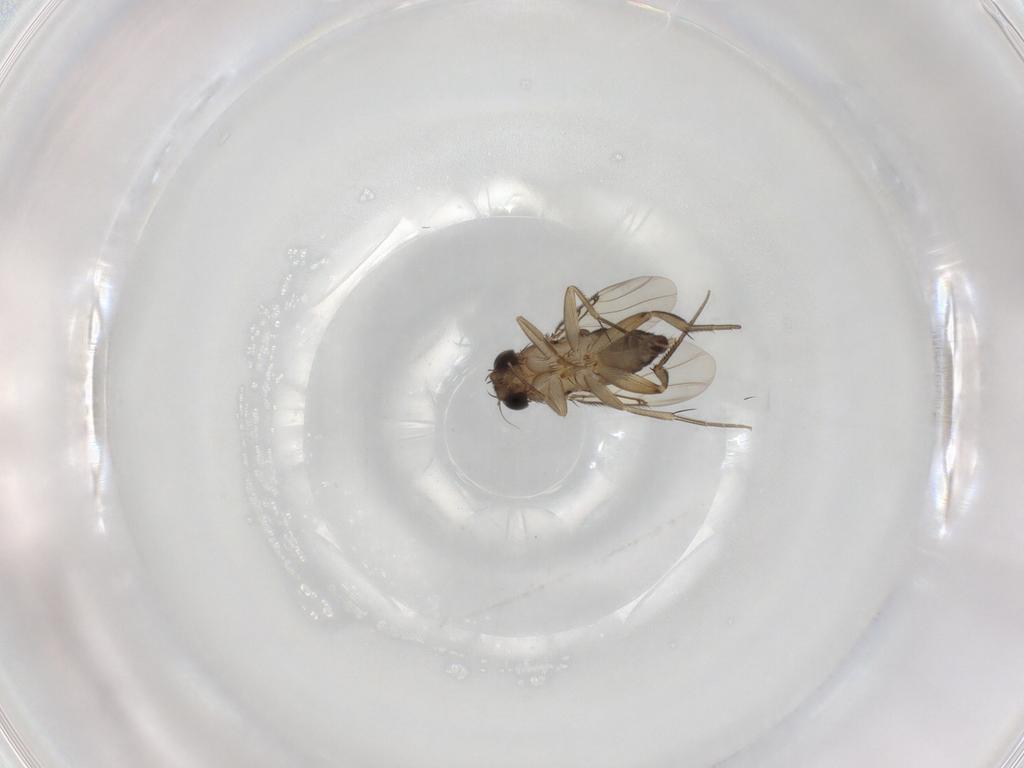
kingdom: Animalia
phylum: Arthropoda
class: Insecta
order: Diptera
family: Phoridae
